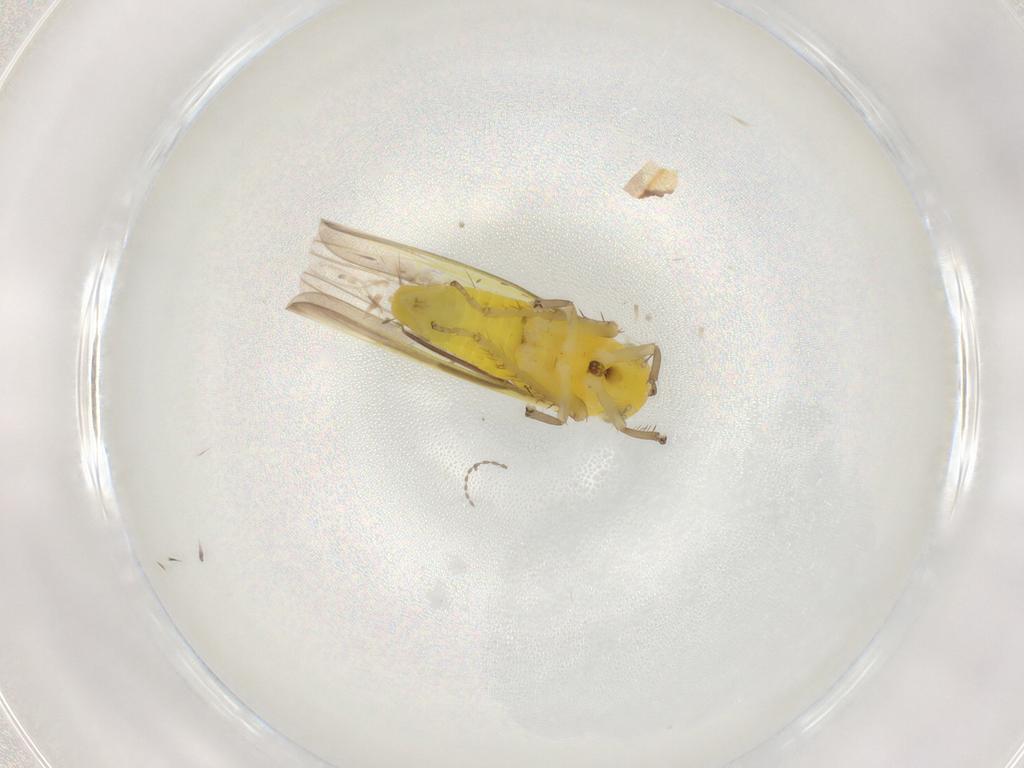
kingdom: Animalia
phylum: Arthropoda
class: Insecta
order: Hemiptera
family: Cicadellidae
